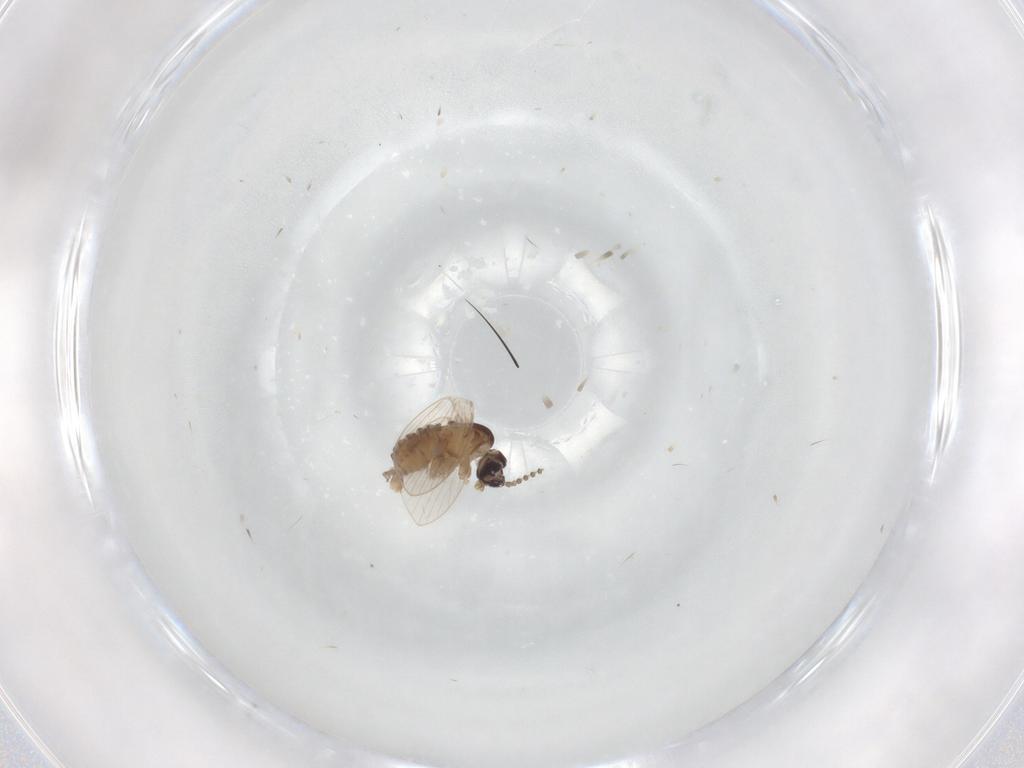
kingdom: Animalia
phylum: Arthropoda
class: Insecta
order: Diptera
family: Psychodidae
